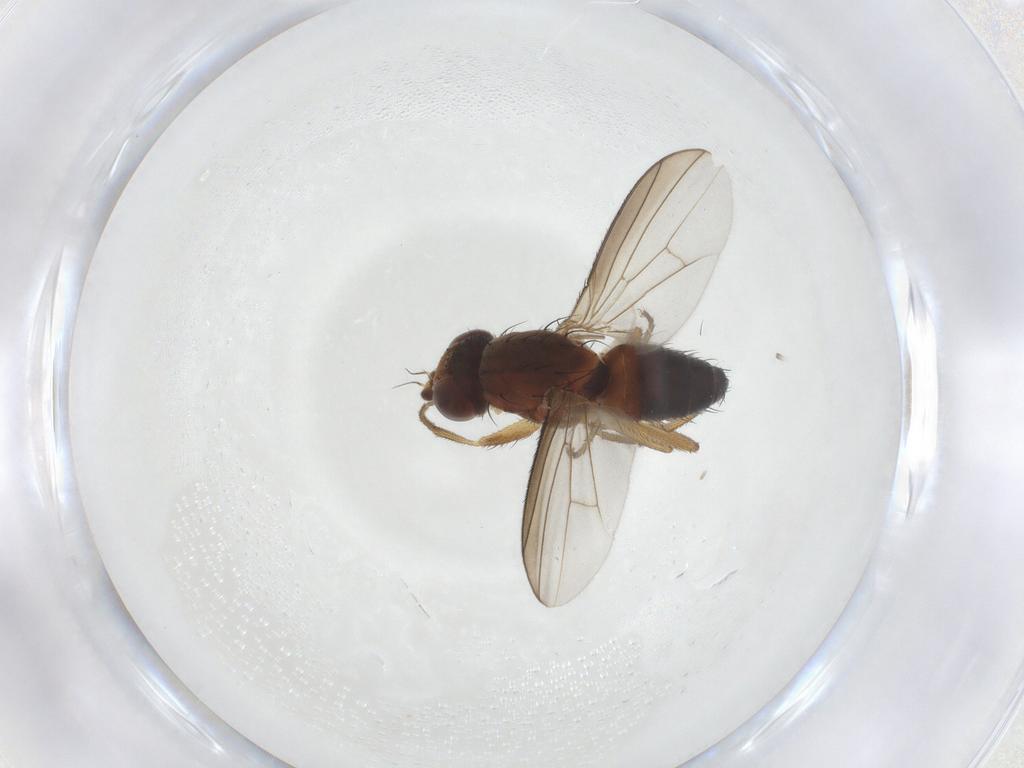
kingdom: Animalia
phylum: Arthropoda
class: Insecta
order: Diptera
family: Heleomyzidae
